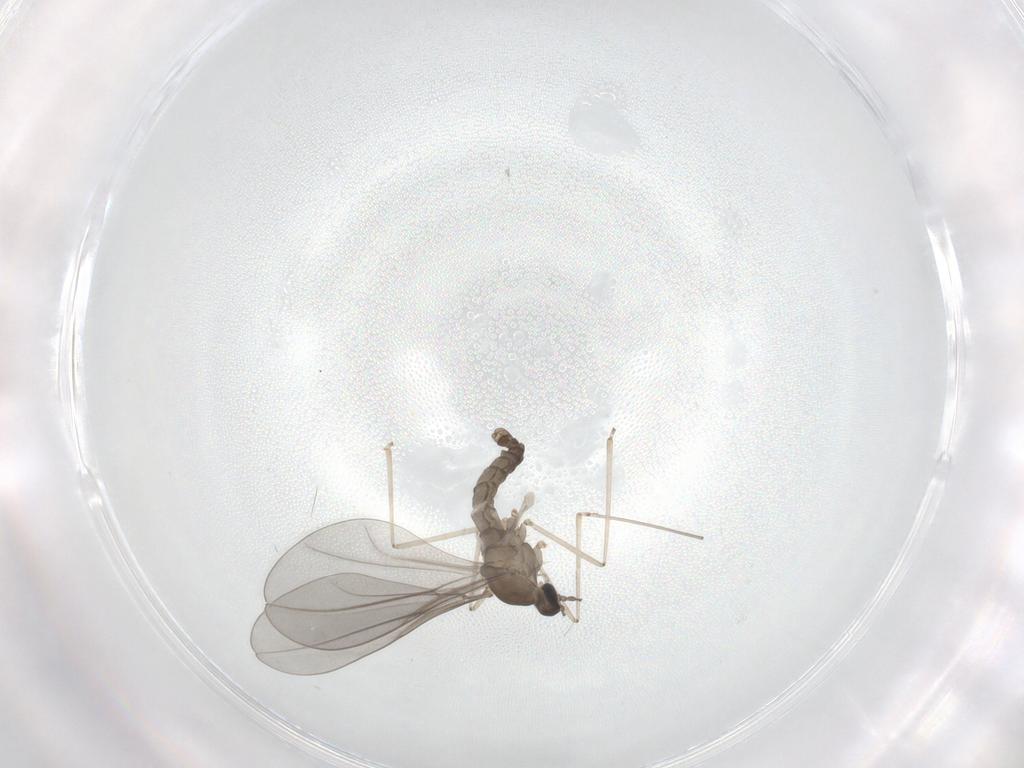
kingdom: Animalia
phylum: Arthropoda
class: Insecta
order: Diptera
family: Cecidomyiidae
